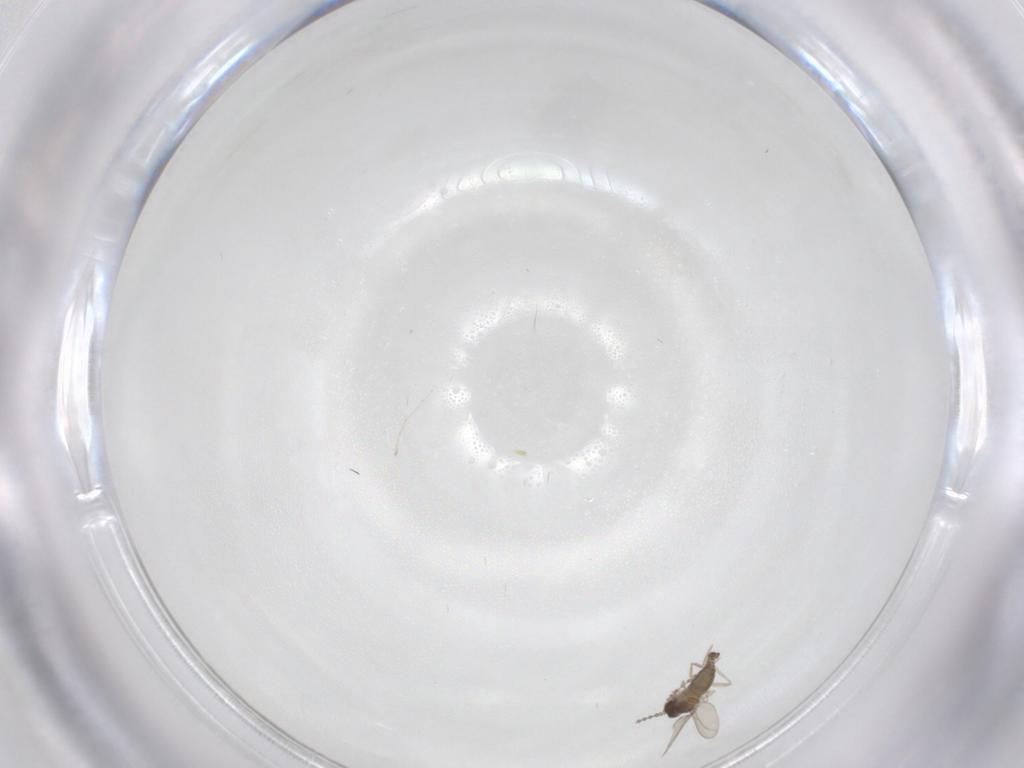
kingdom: Animalia
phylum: Arthropoda
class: Insecta
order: Diptera
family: Cecidomyiidae
